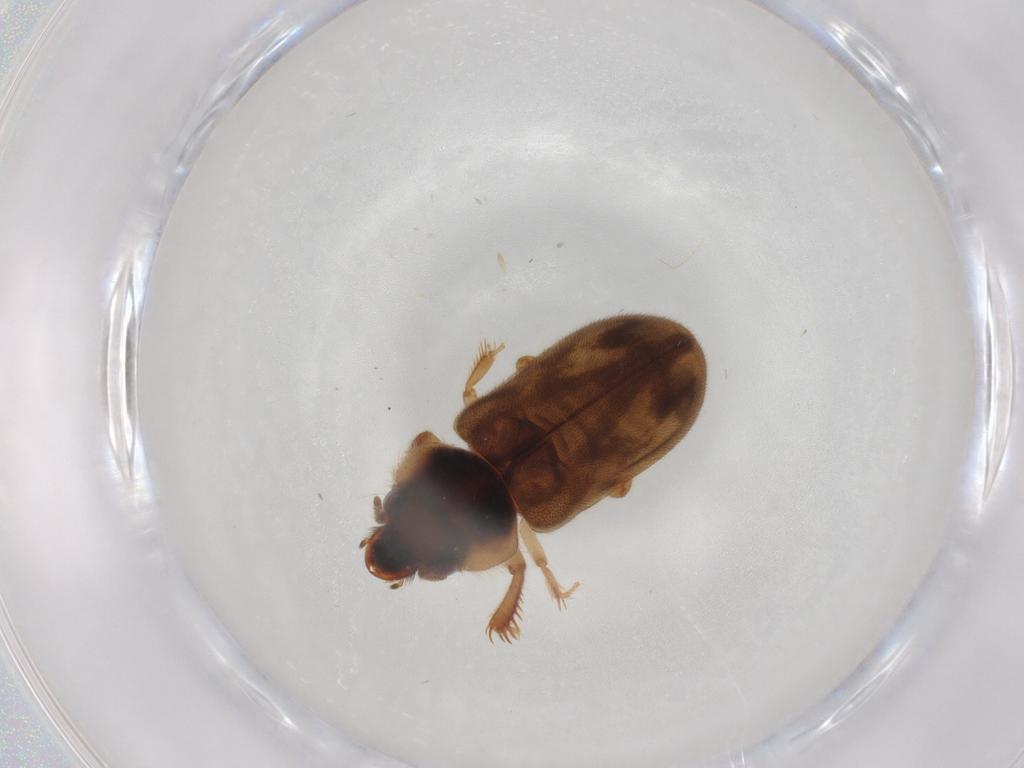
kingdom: Animalia
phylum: Arthropoda
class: Insecta
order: Coleoptera
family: Heteroceridae
